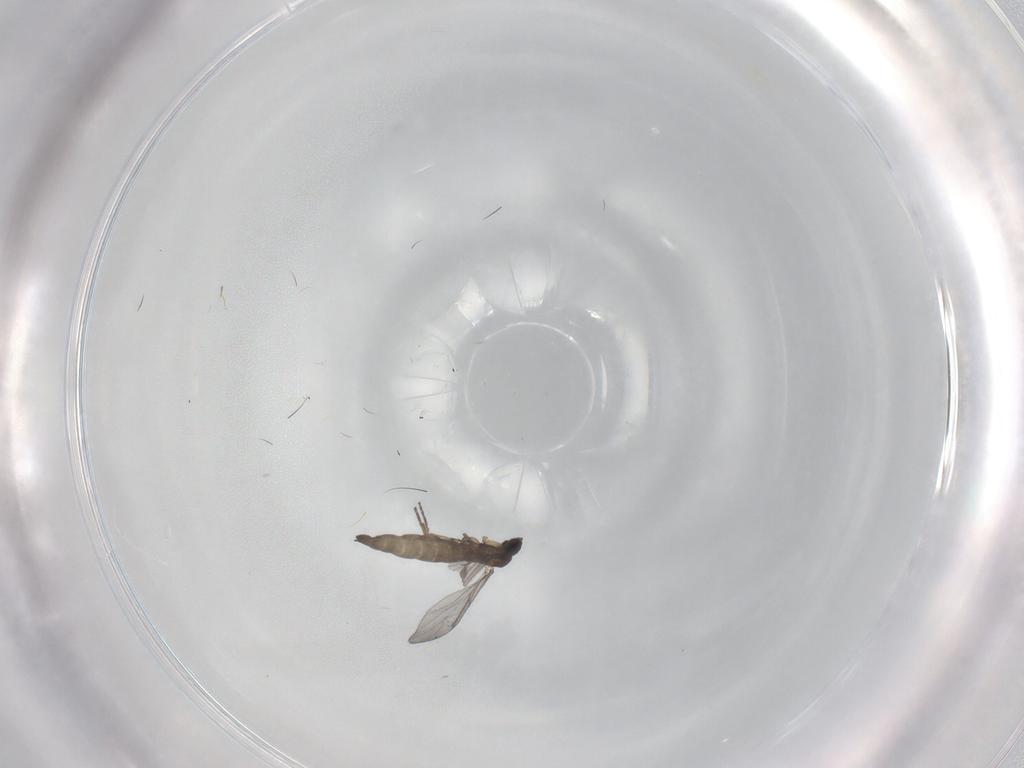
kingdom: Animalia
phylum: Arthropoda
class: Insecta
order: Diptera
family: Sciaridae
